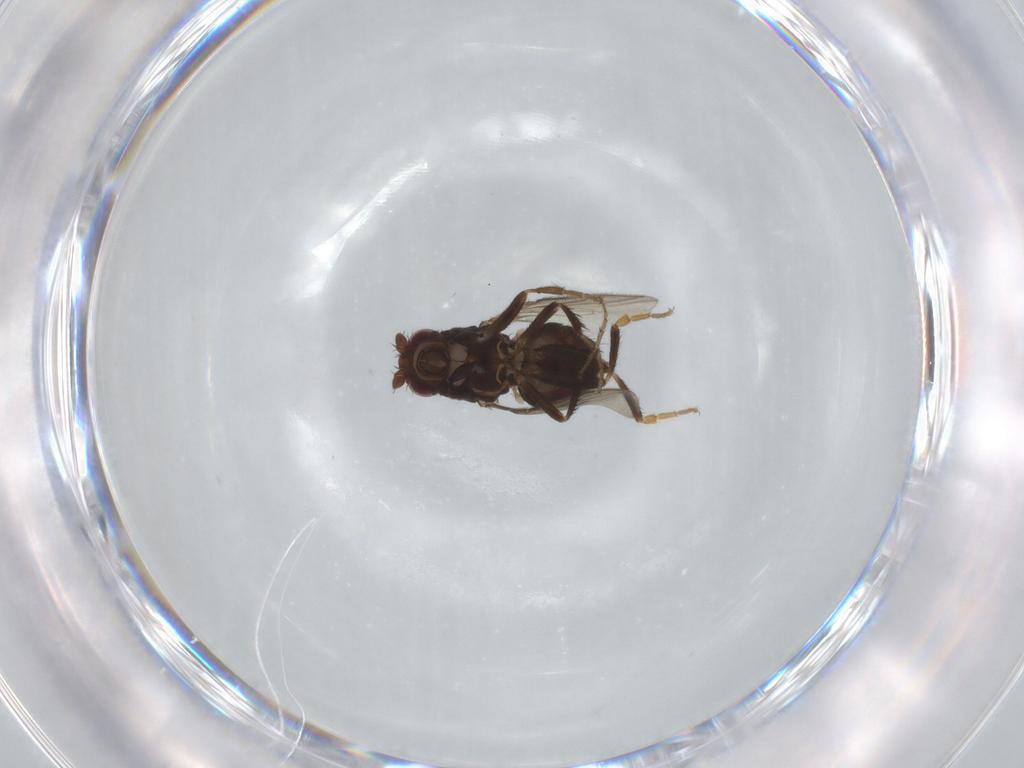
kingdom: Animalia
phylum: Arthropoda
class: Insecta
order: Diptera
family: Sphaeroceridae
